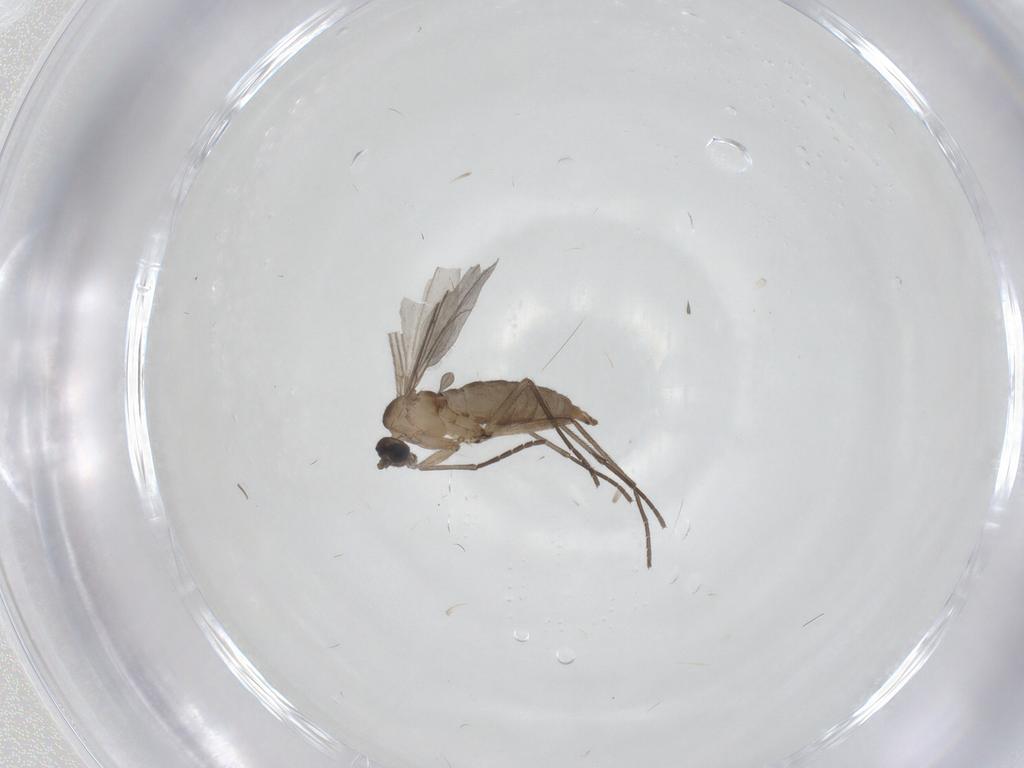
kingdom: Animalia
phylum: Arthropoda
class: Insecta
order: Diptera
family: Sciaridae
